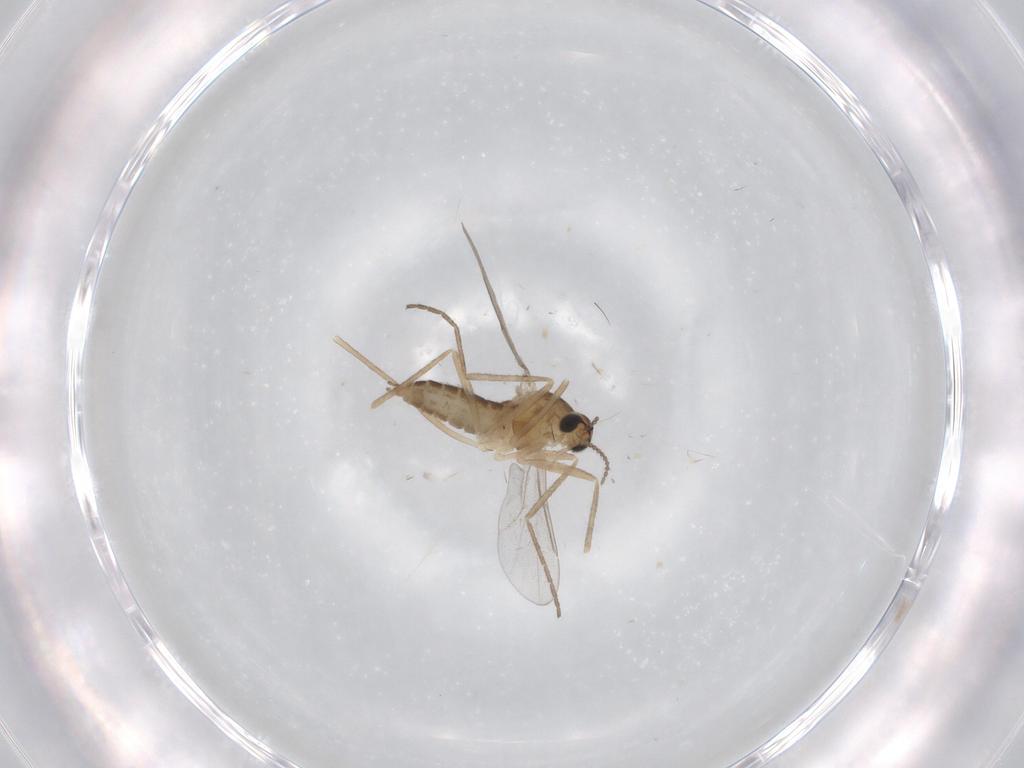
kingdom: Animalia
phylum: Arthropoda
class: Insecta
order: Diptera
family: Cecidomyiidae
